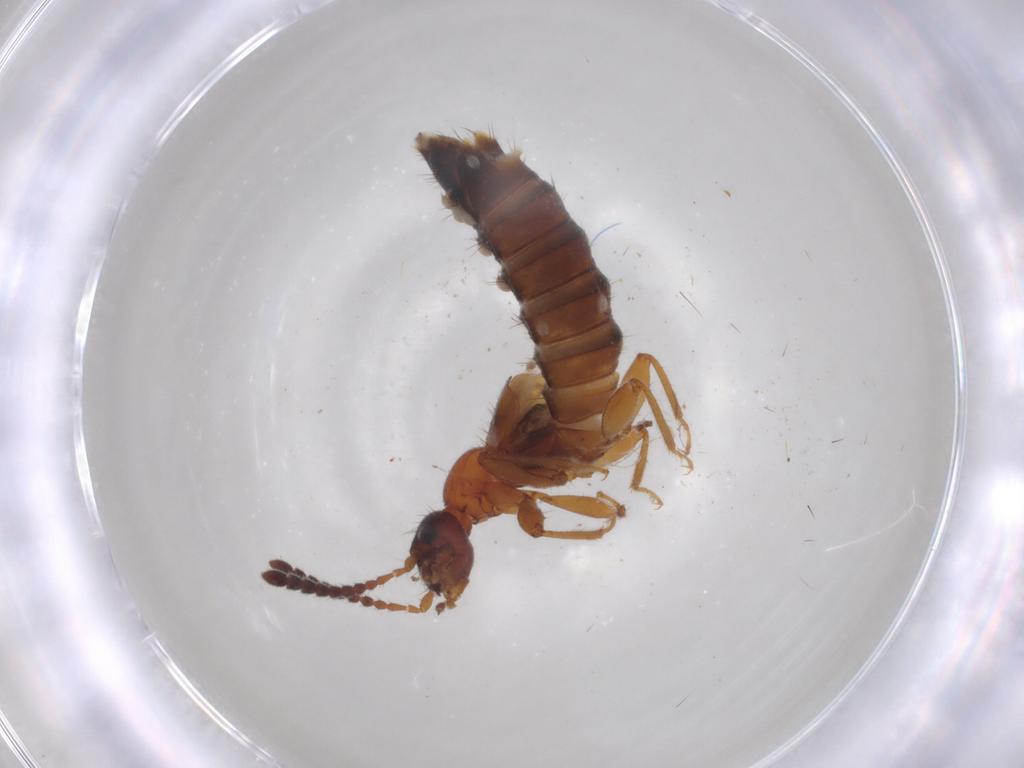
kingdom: Animalia
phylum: Arthropoda
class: Insecta
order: Coleoptera
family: Staphylinidae
